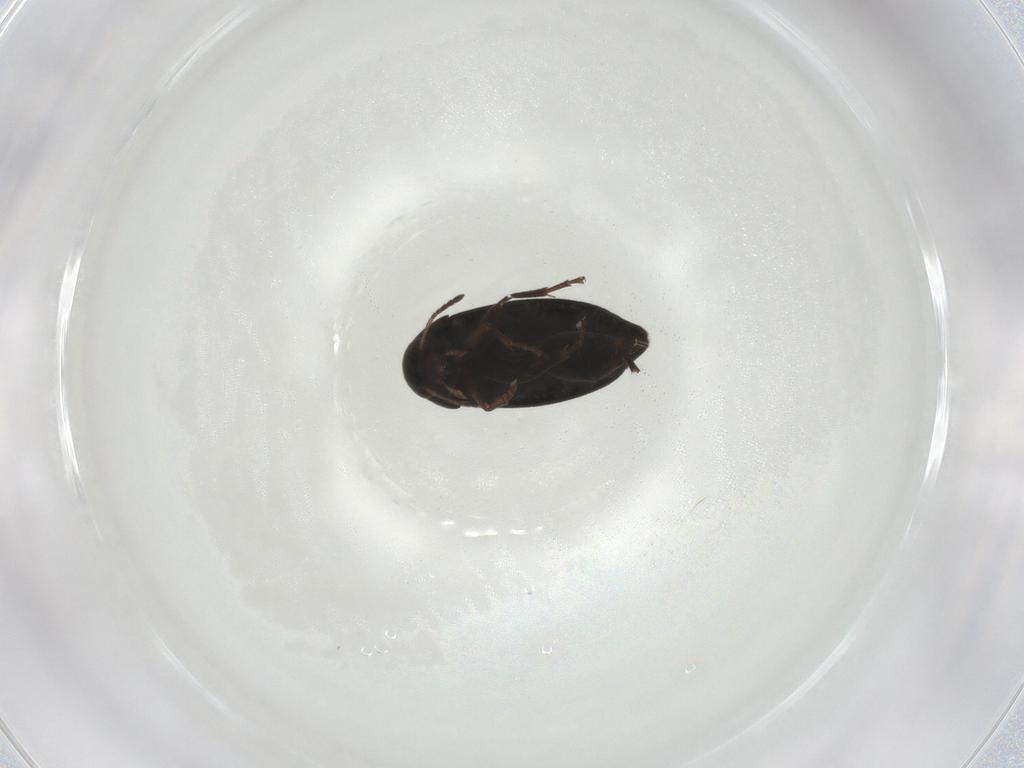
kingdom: Animalia
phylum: Arthropoda
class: Insecta
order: Coleoptera
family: Scraptiidae
